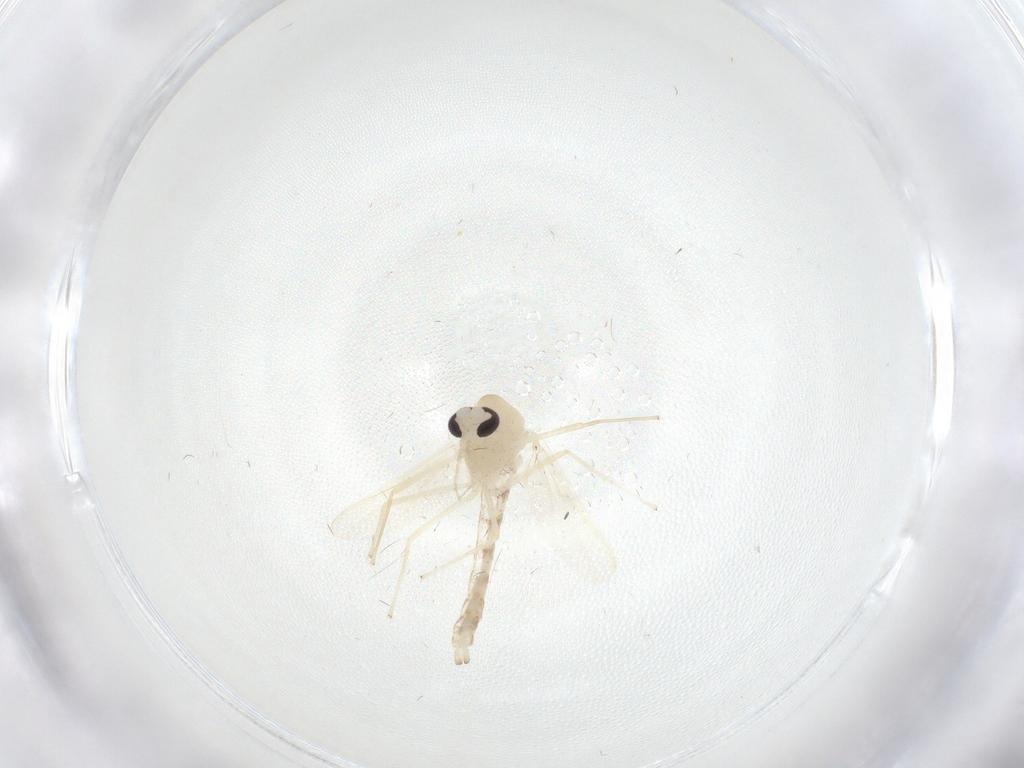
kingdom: Animalia
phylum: Arthropoda
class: Insecta
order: Diptera
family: Chironomidae
